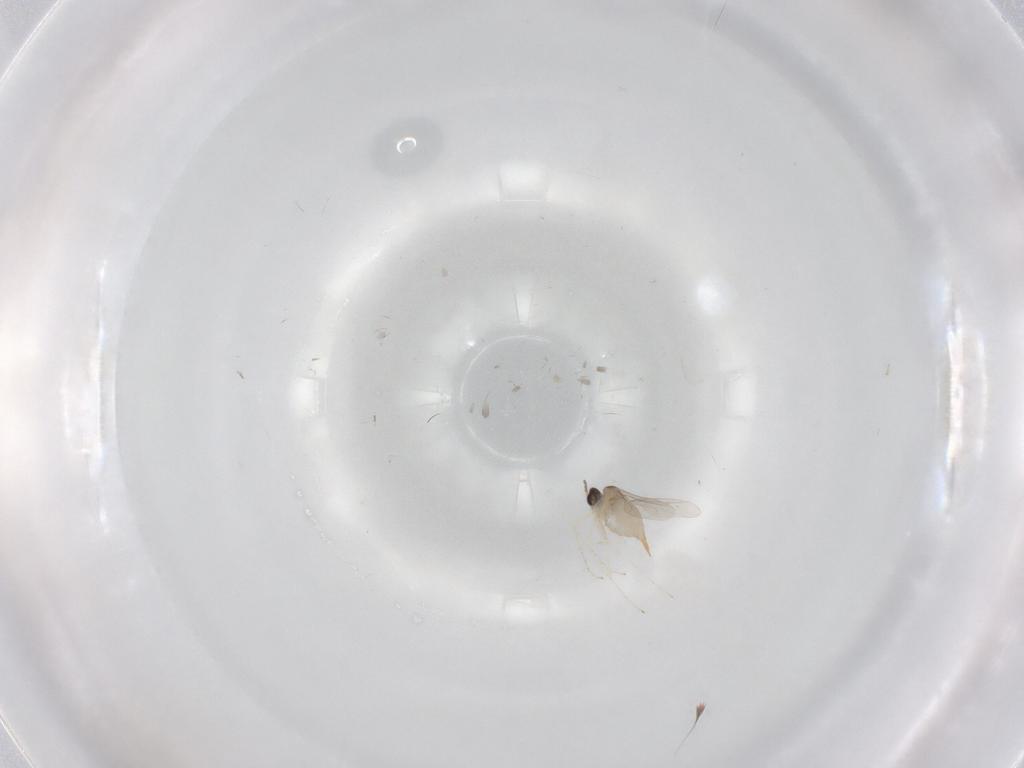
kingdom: Animalia
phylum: Arthropoda
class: Insecta
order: Diptera
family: Cecidomyiidae
